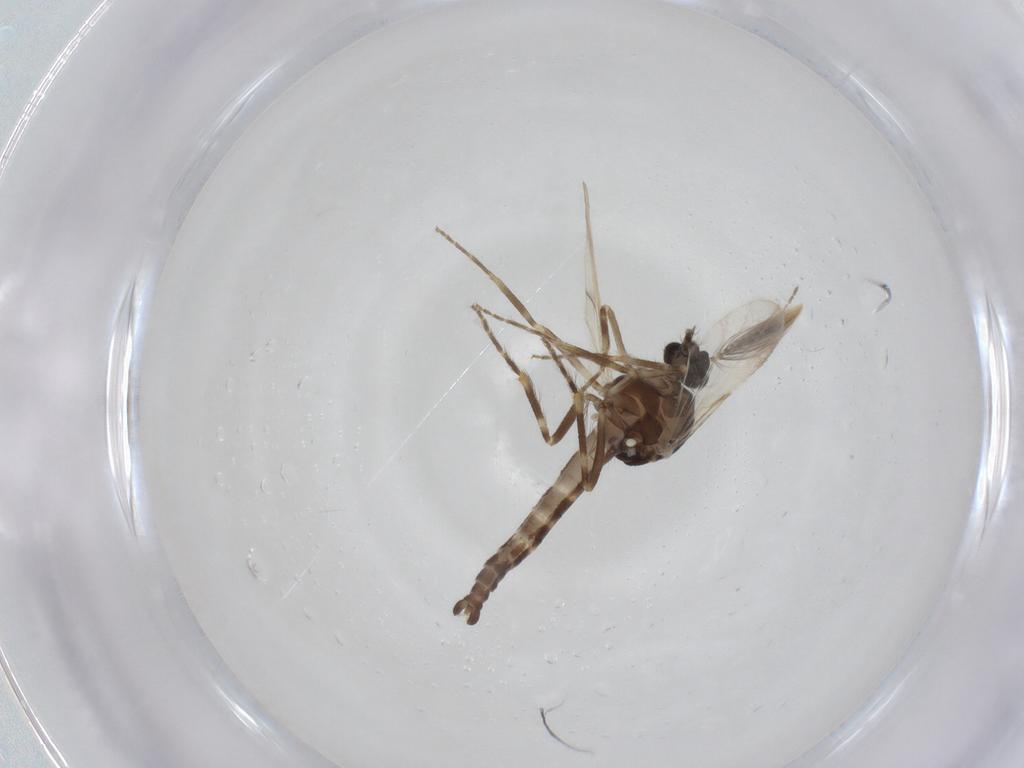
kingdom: Animalia
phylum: Arthropoda
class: Insecta
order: Diptera
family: Ceratopogonidae
